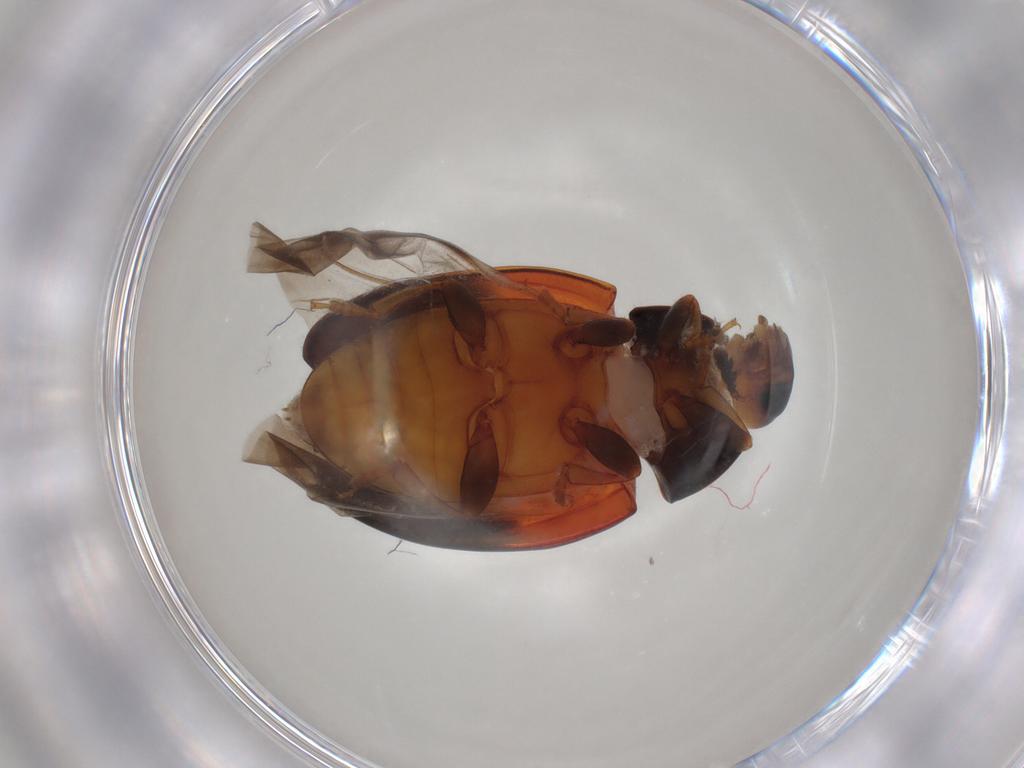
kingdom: Animalia
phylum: Arthropoda
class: Insecta
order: Coleoptera
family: Erotylidae
